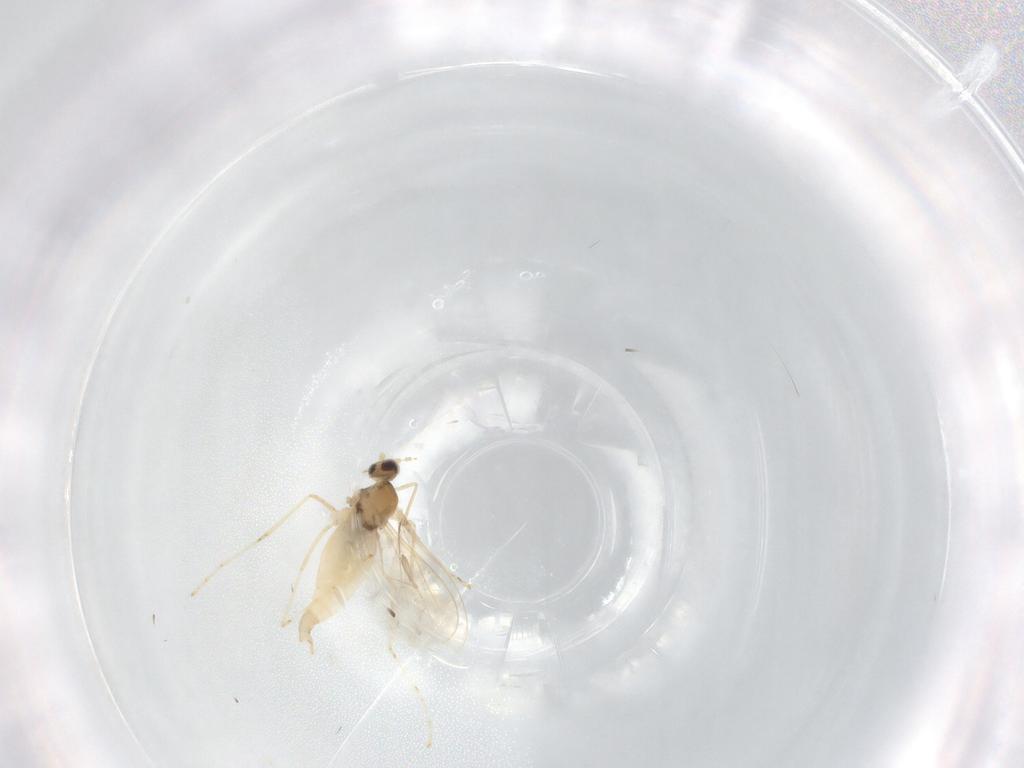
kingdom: Animalia
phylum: Arthropoda
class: Insecta
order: Diptera
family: Cecidomyiidae
